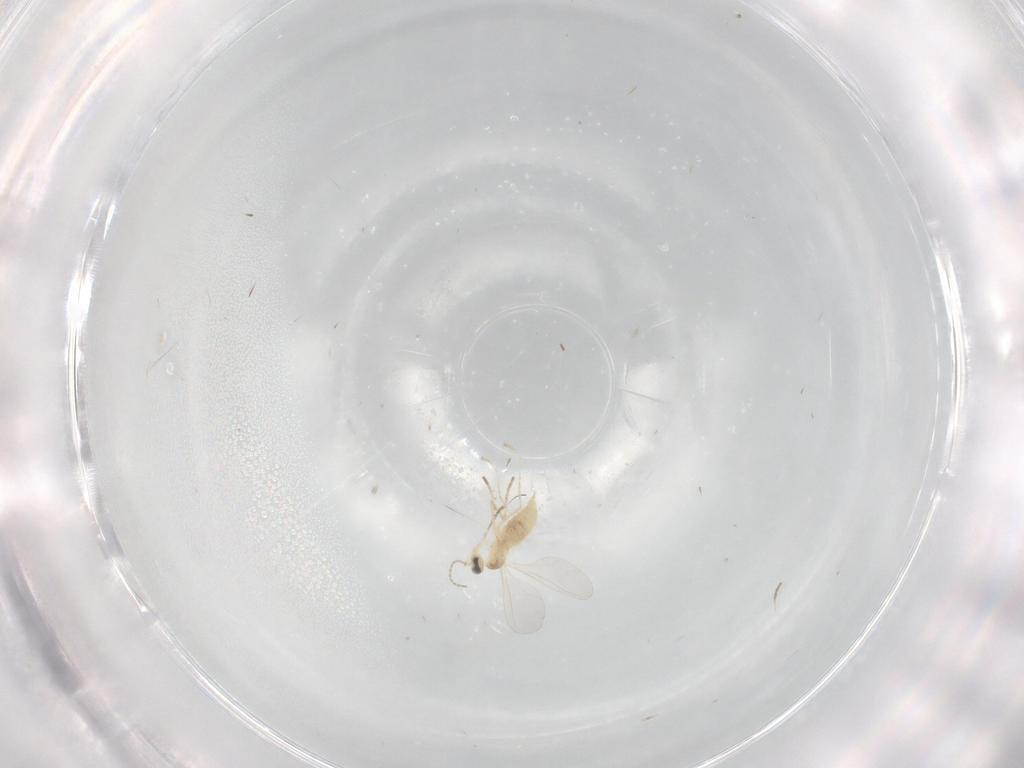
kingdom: Animalia
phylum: Arthropoda
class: Insecta
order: Diptera
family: Cecidomyiidae
